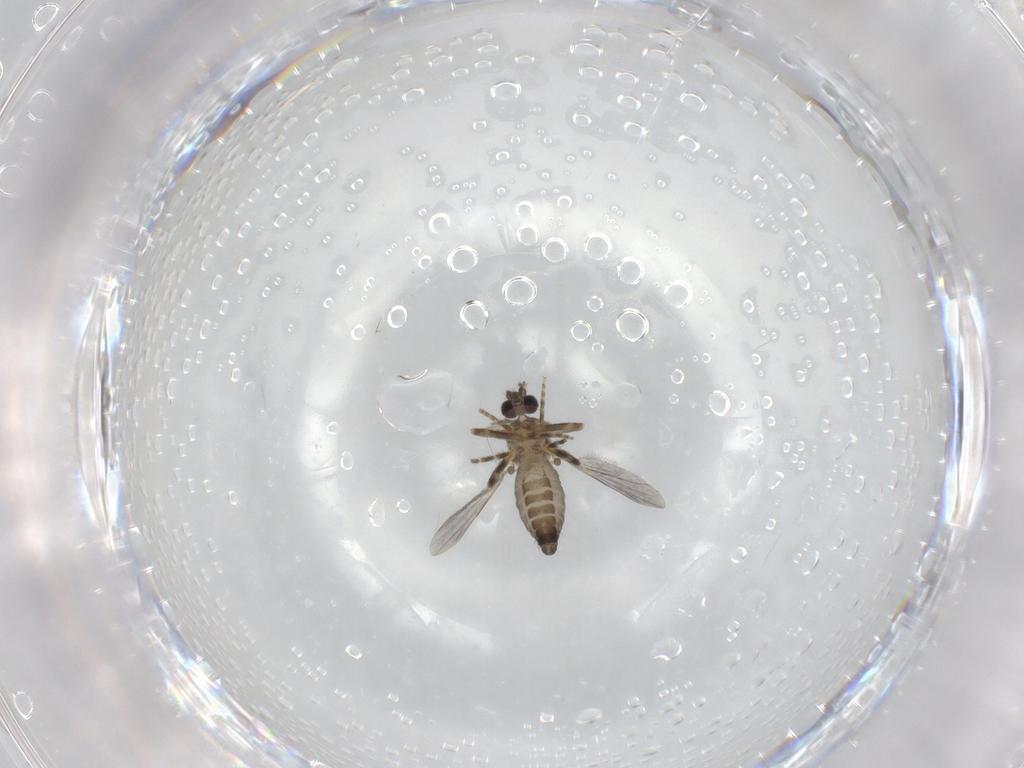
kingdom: Animalia
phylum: Arthropoda
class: Insecta
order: Diptera
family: Ceratopogonidae
